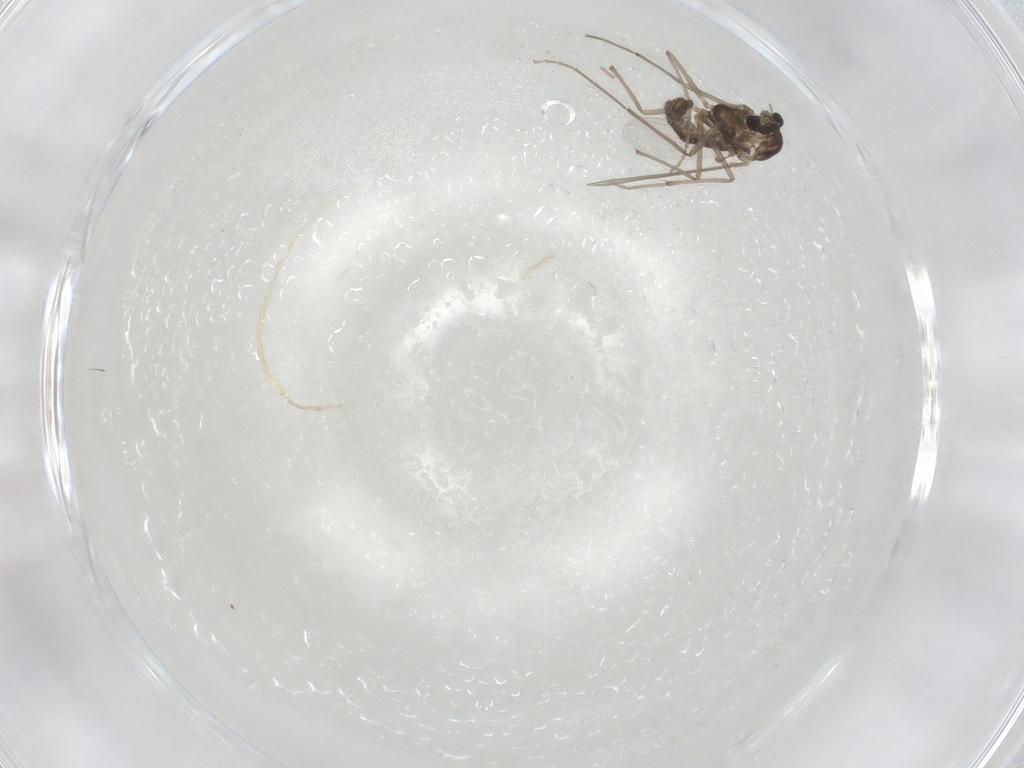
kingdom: Animalia
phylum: Arthropoda
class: Insecta
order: Diptera
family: Chironomidae
